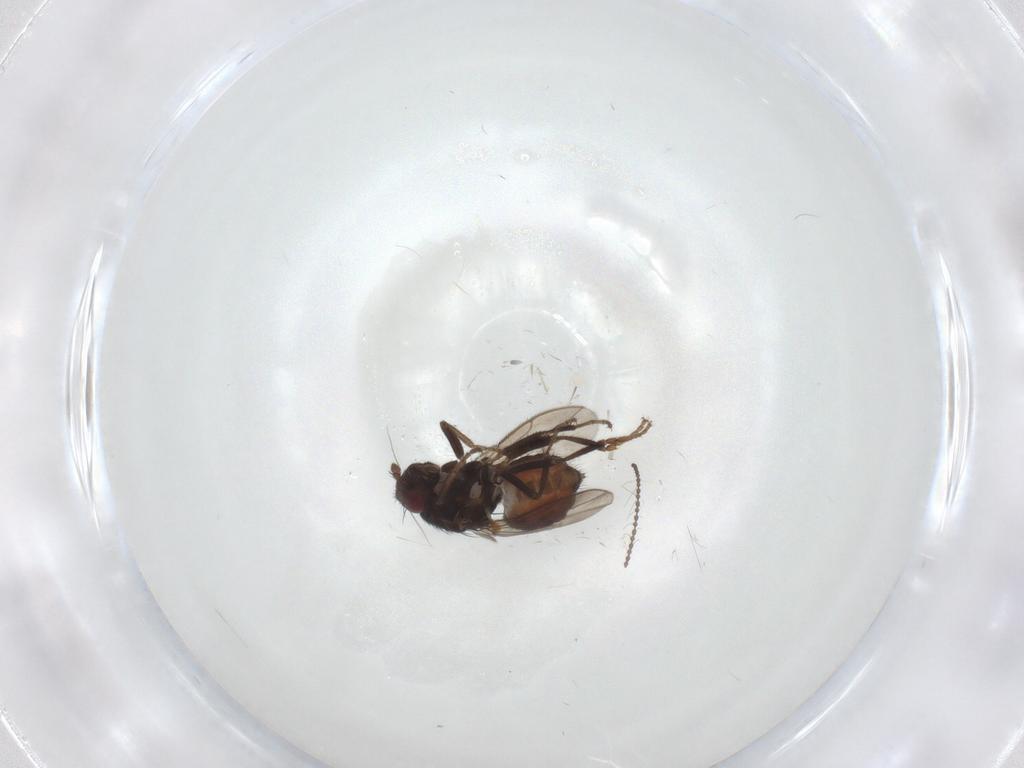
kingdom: Animalia
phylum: Arthropoda
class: Insecta
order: Diptera
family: Sphaeroceridae
